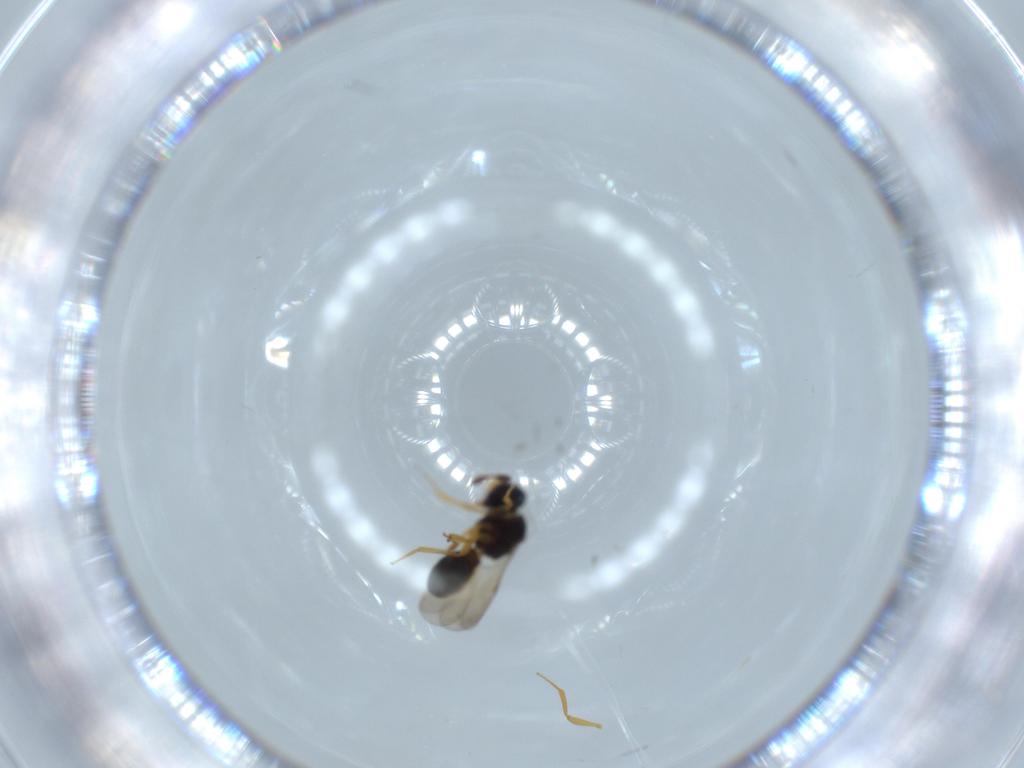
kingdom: Animalia
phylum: Arthropoda
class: Insecta
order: Hymenoptera
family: Scelionidae
